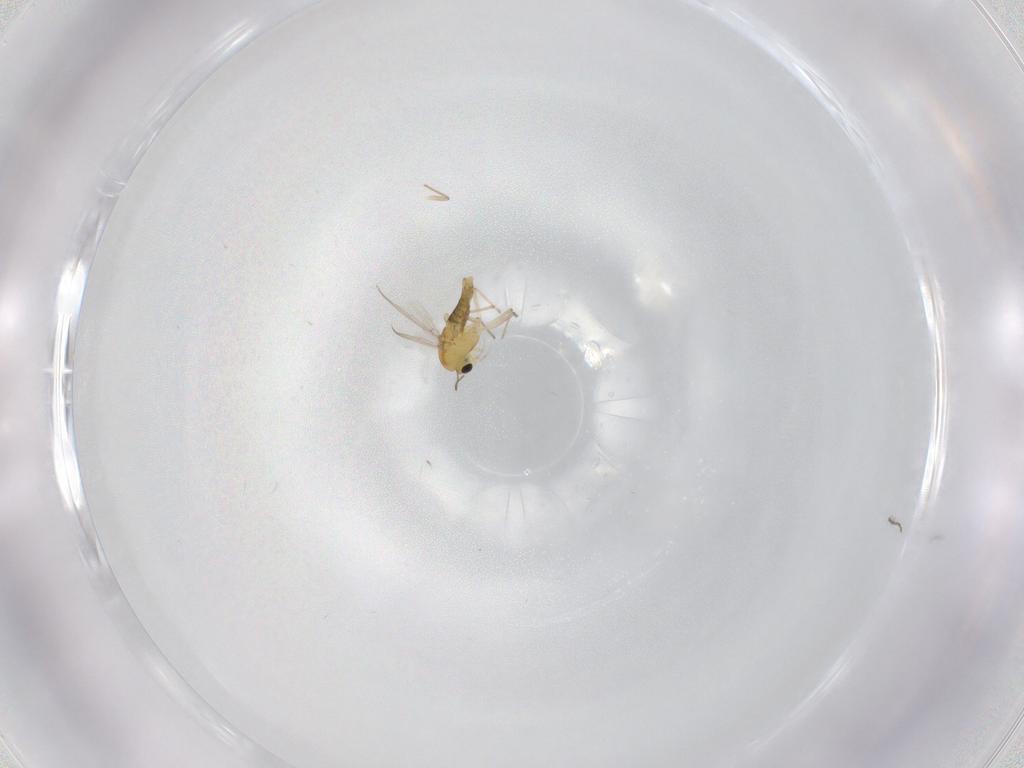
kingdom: Animalia
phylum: Arthropoda
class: Insecta
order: Diptera
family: Chironomidae
